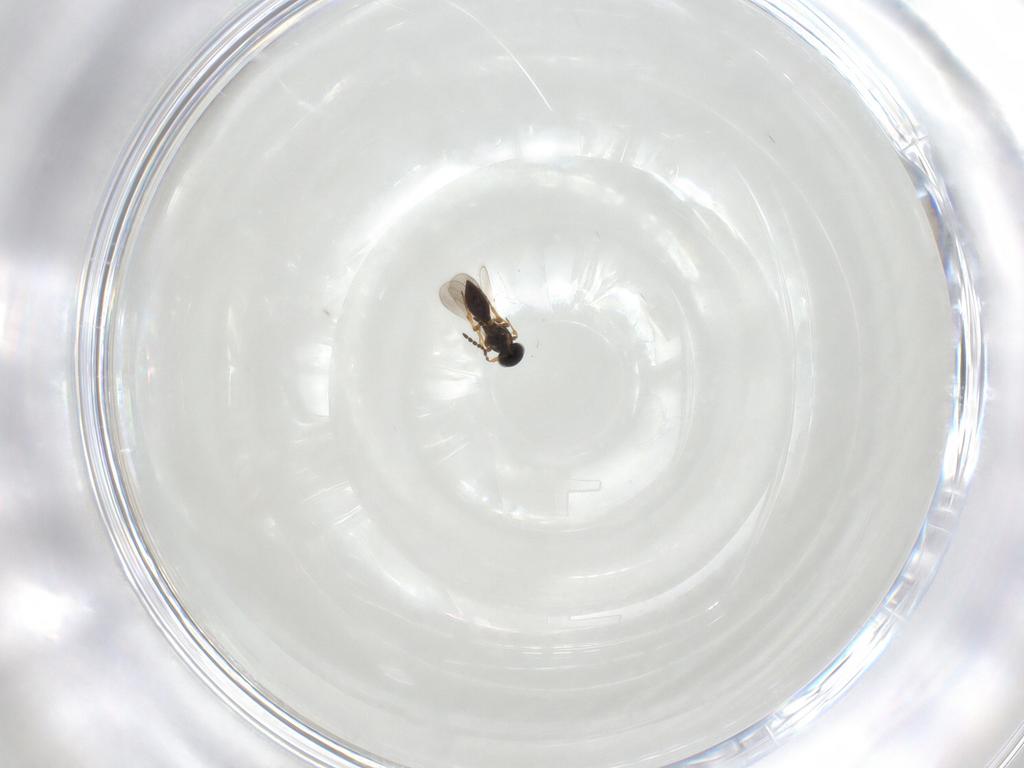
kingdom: Animalia
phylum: Arthropoda
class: Insecta
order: Hymenoptera
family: Platygastridae
